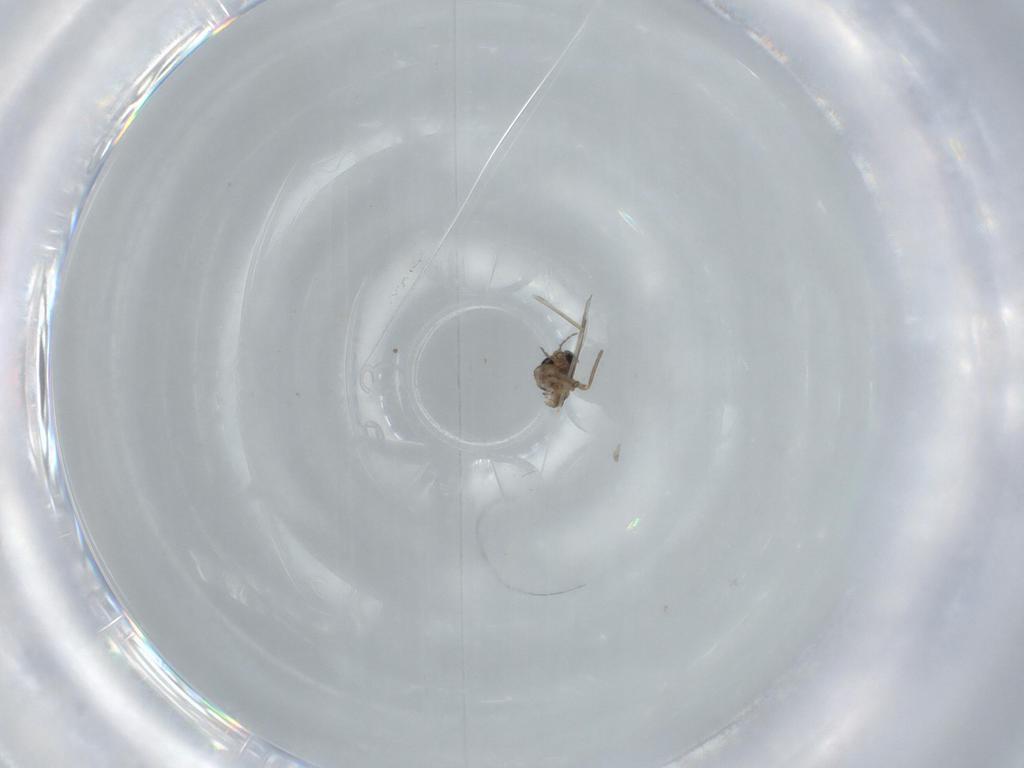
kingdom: Animalia
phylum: Arthropoda
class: Insecta
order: Diptera
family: Chironomidae
